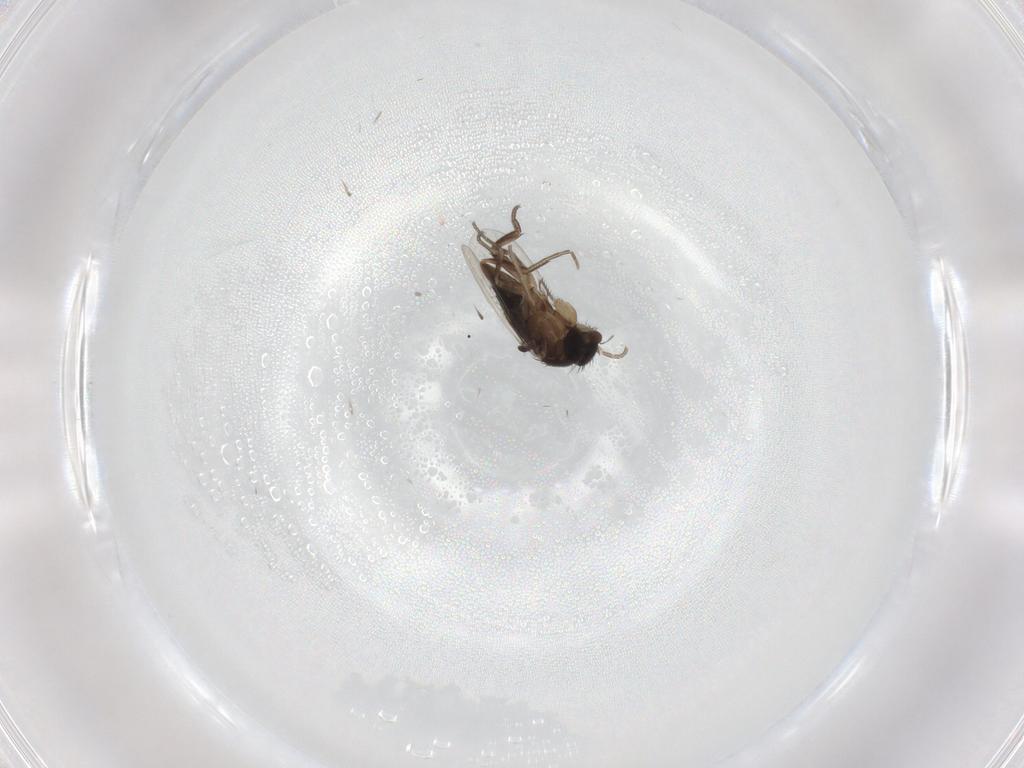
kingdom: Animalia
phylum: Arthropoda
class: Insecta
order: Diptera
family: Phoridae
